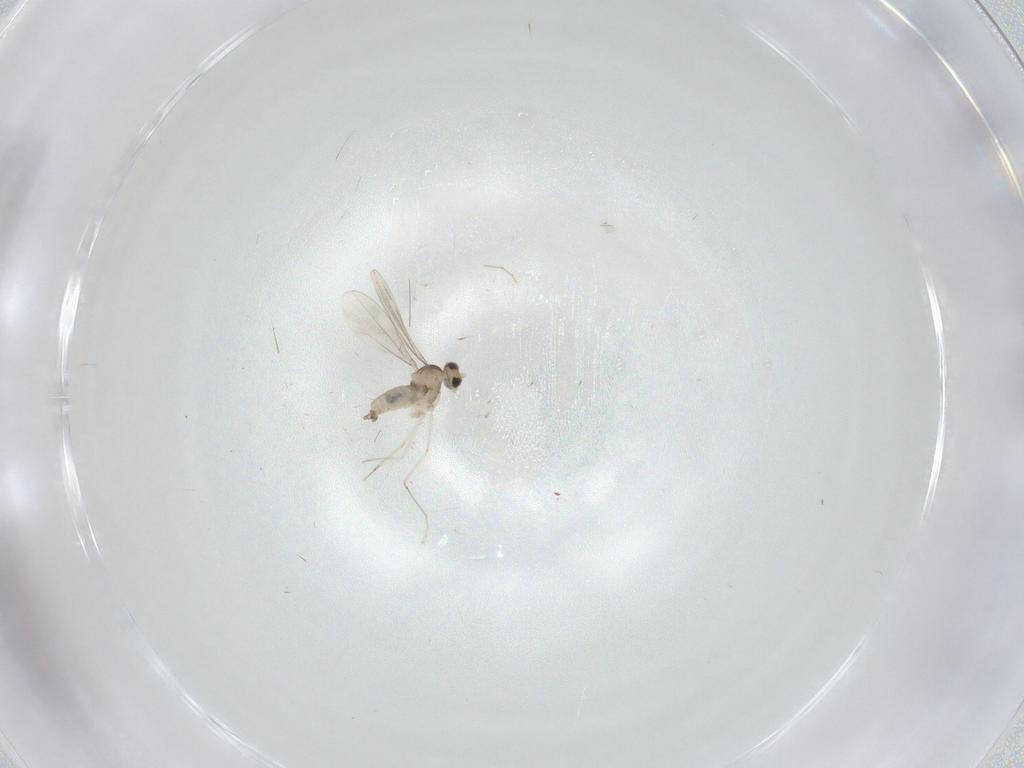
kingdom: Animalia
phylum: Arthropoda
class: Insecta
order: Diptera
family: Cecidomyiidae
